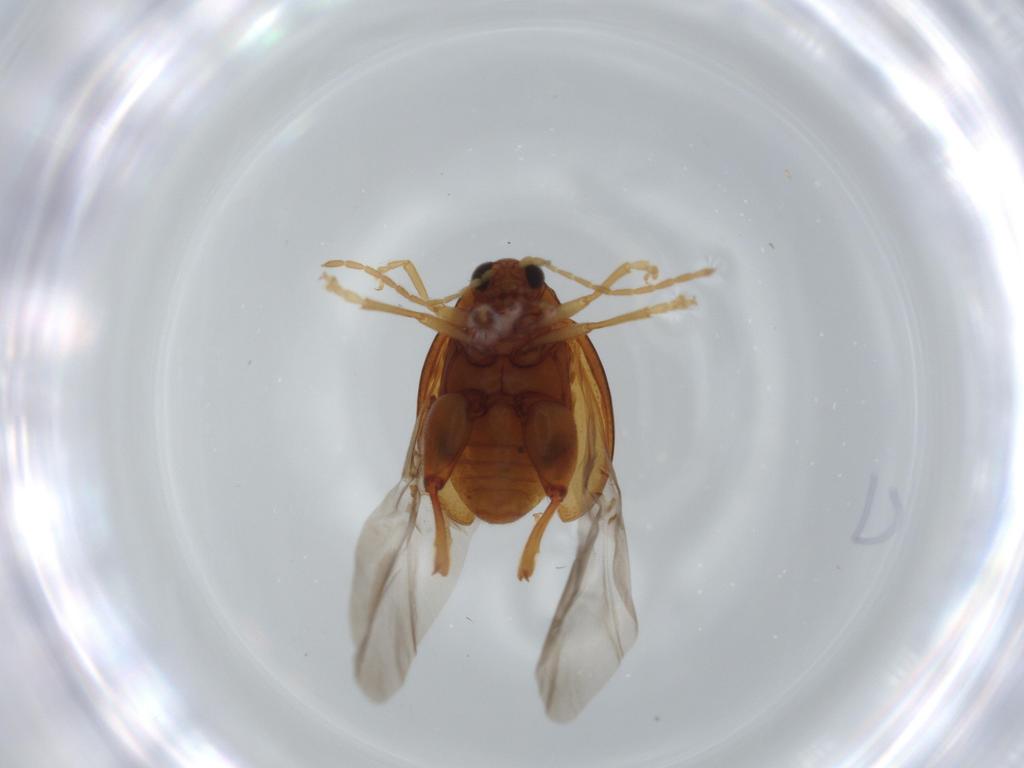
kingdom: Animalia
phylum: Arthropoda
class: Insecta
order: Coleoptera
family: Chrysomelidae
